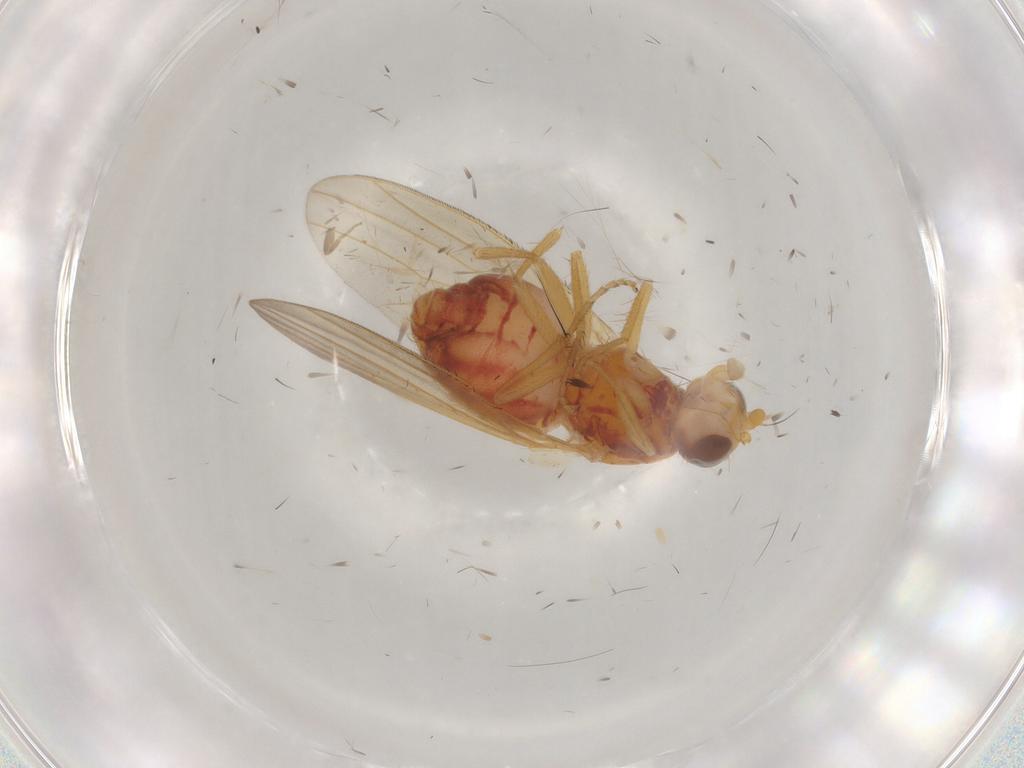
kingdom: Animalia
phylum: Arthropoda
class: Insecta
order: Diptera
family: Heleomyzidae
